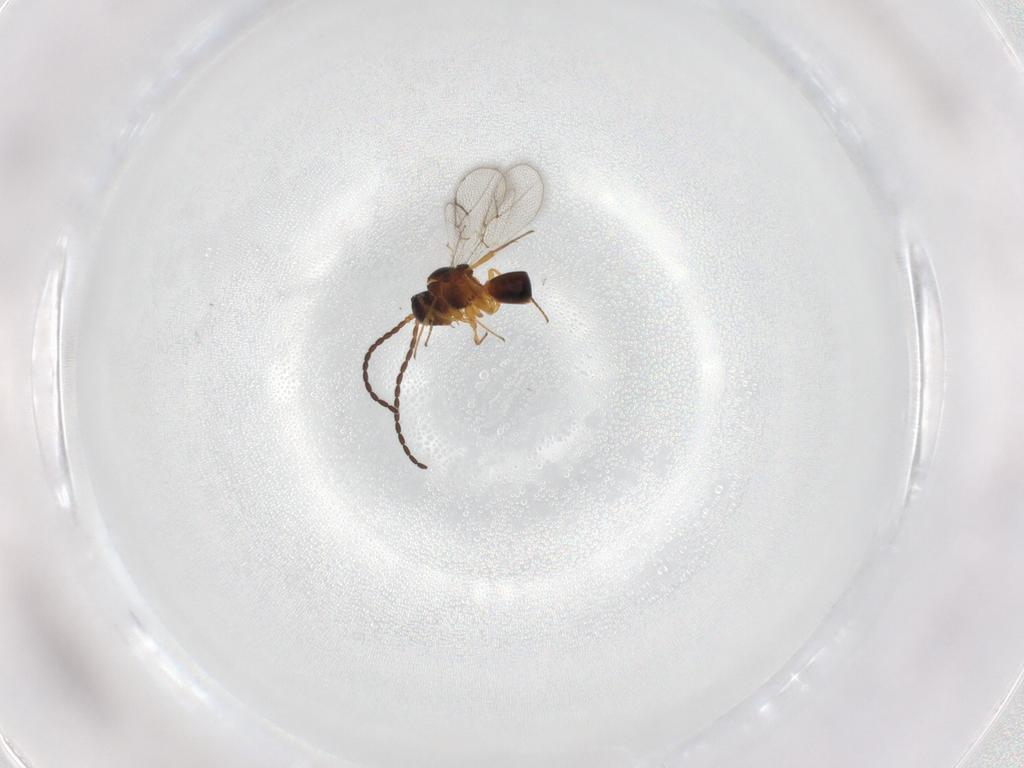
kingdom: Animalia
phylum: Arthropoda
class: Insecta
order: Hymenoptera
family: Figitidae
